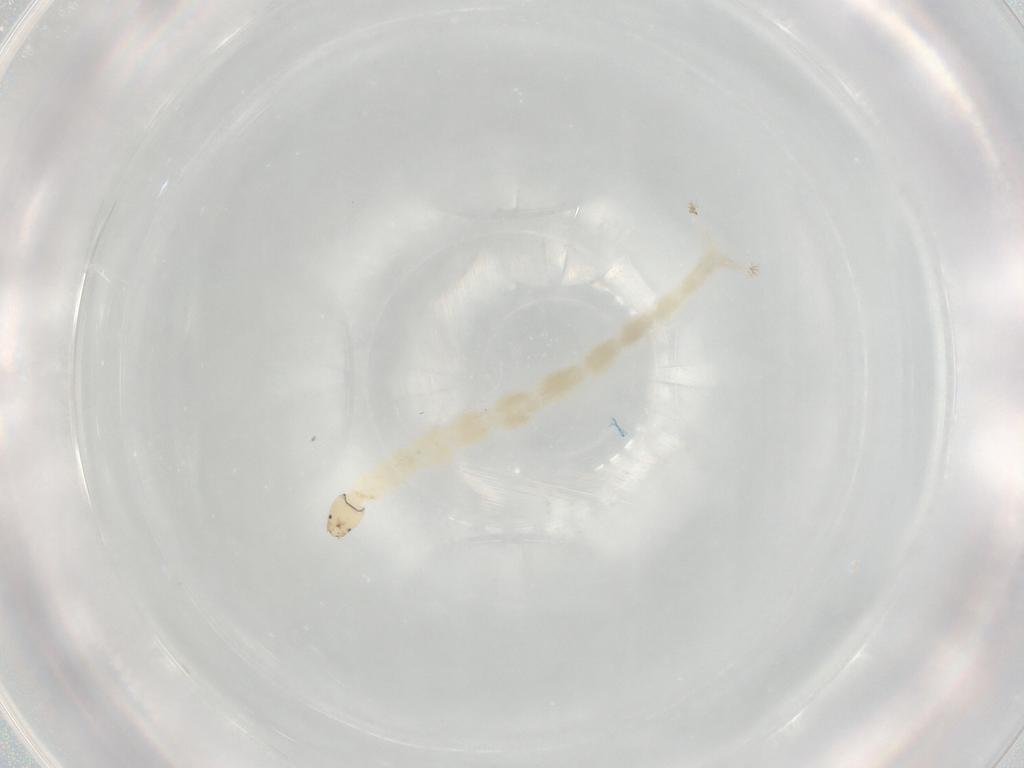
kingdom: Animalia
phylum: Arthropoda
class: Insecta
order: Diptera
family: Chironomidae
